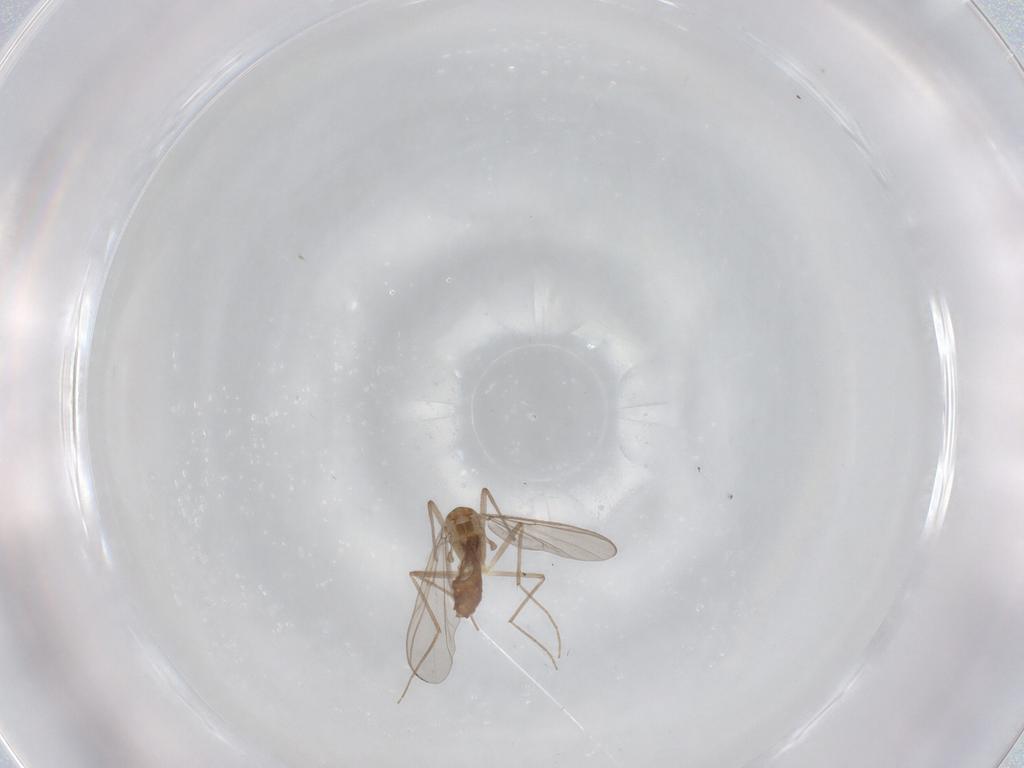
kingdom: Animalia
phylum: Arthropoda
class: Insecta
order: Diptera
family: Chironomidae
